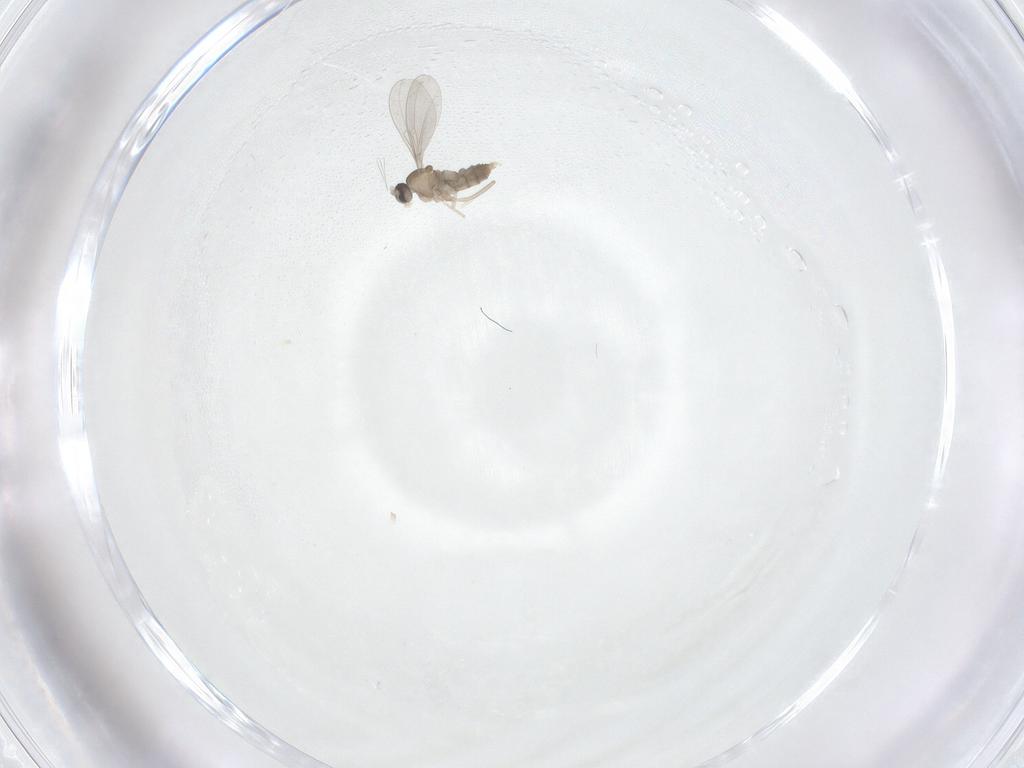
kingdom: Animalia
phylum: Arthropoda
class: Insecta
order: Diptera
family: Cecidomyiidae
